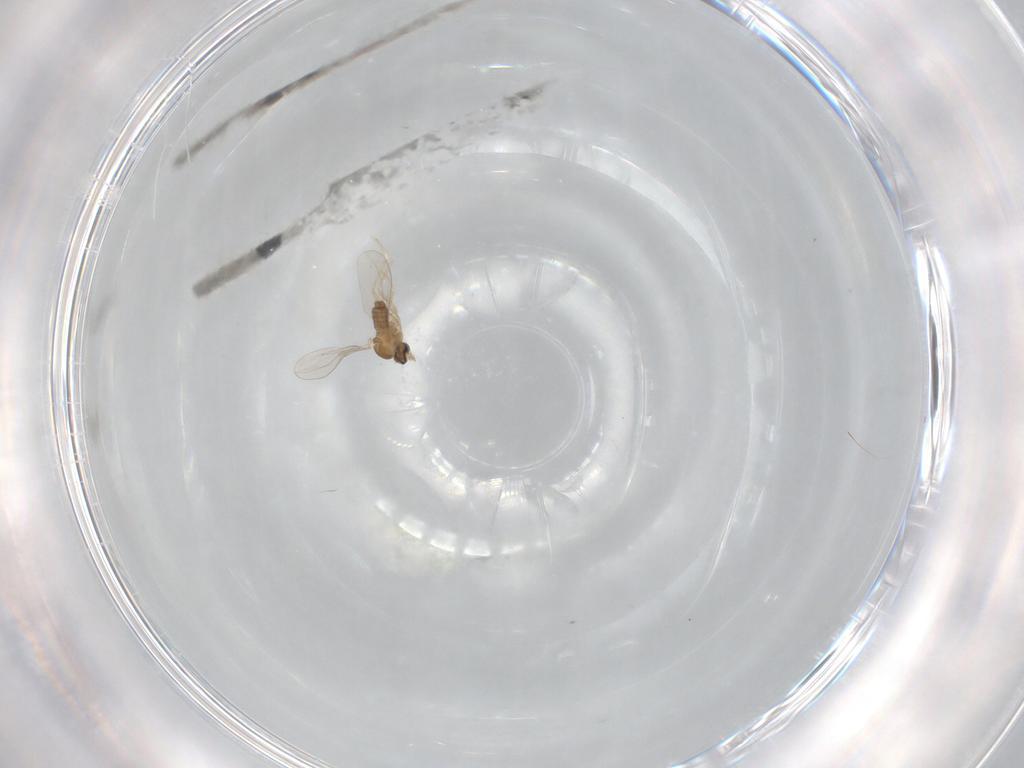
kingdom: Animalia
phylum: Arthropoda
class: Insecta
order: Diptera
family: Cecidomyiidae
